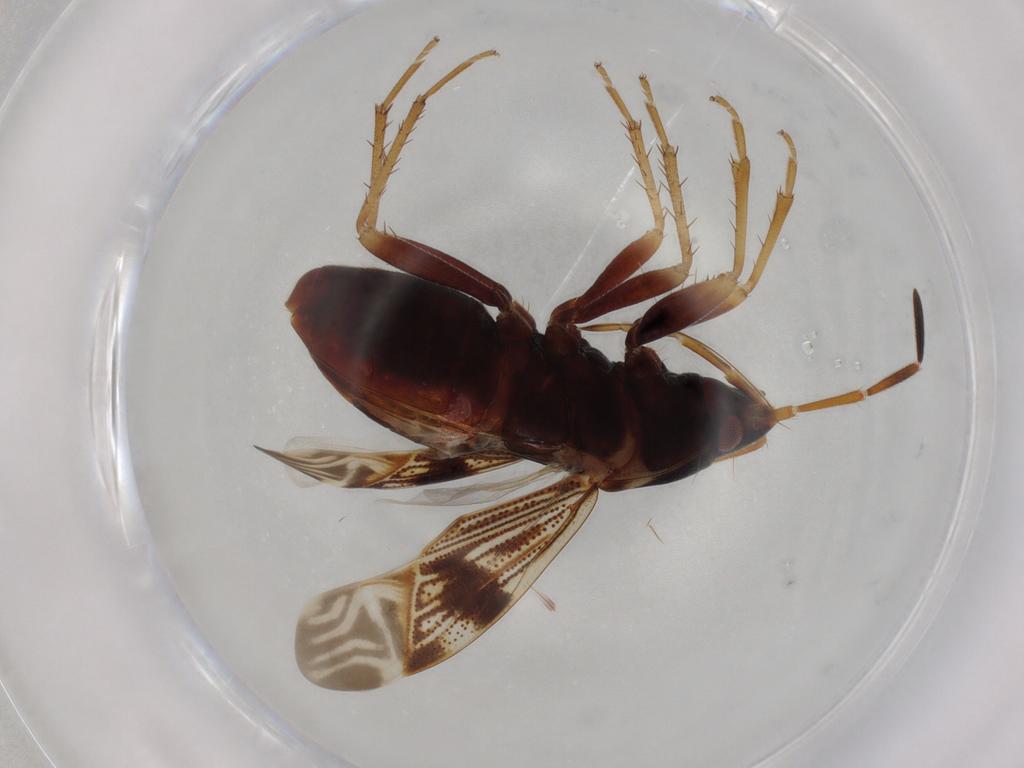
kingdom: Animalia
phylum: Arthropoda
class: Insecta
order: Hemiptera
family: Rhyparochromidae
